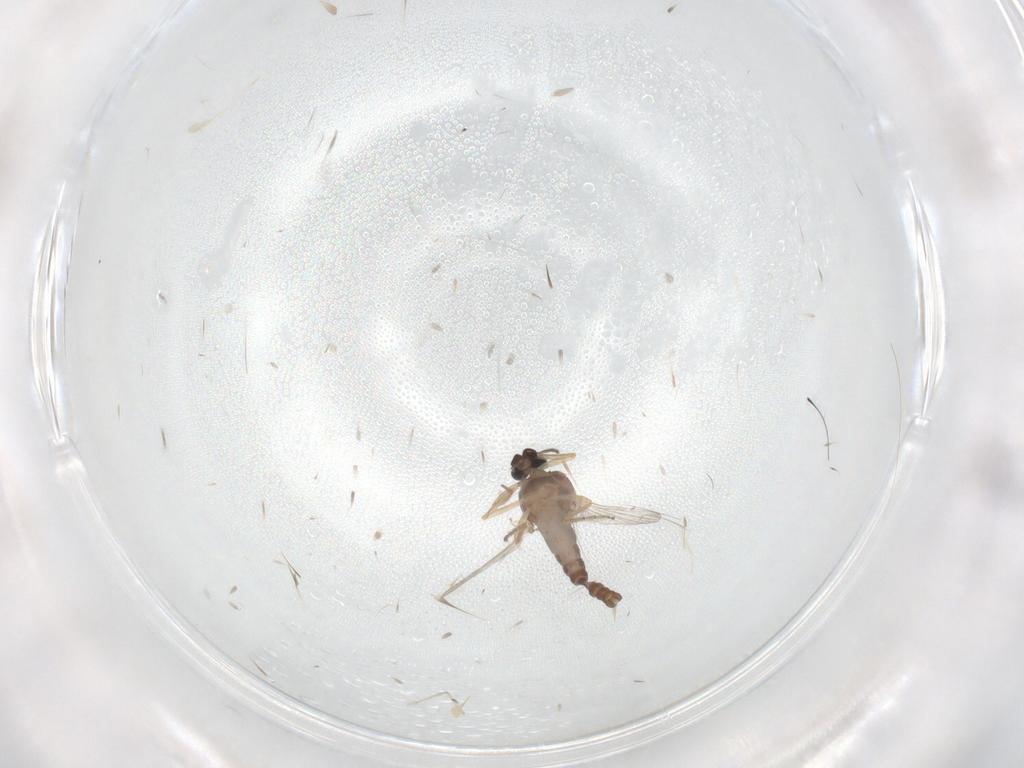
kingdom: Animalia
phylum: Arthropoda
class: Insecta
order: Diptera
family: Ceratopogonidae
